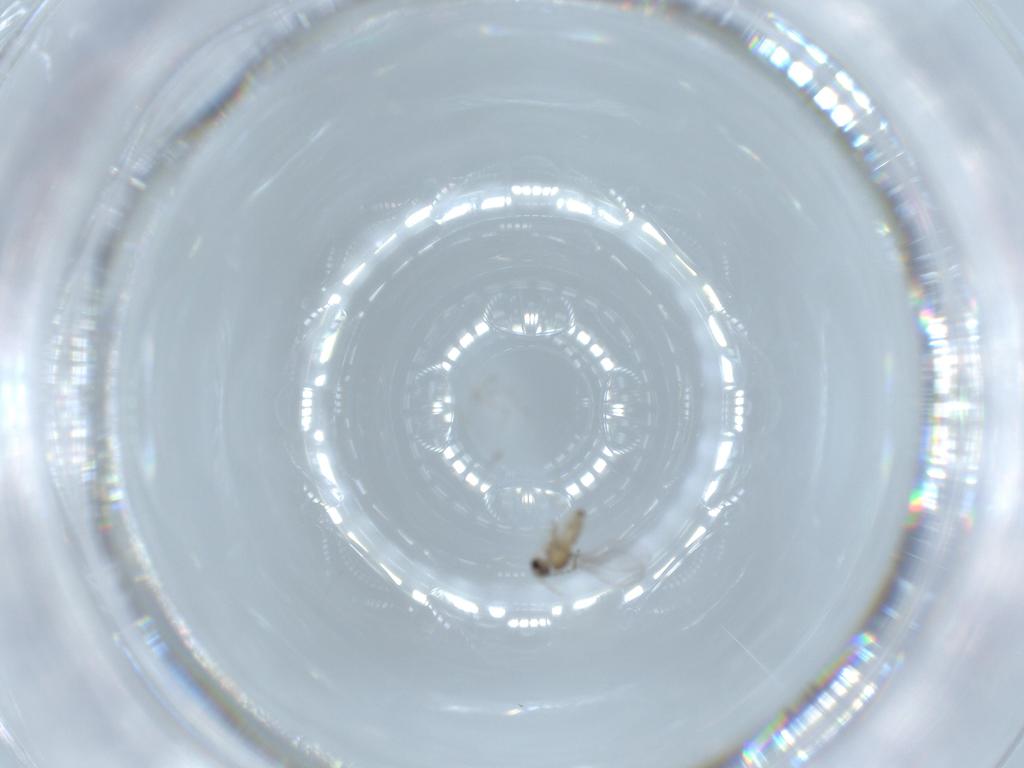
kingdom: Animalia
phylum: Arthropoda
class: Insecta
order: Diptera
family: Cecidomyiidae
